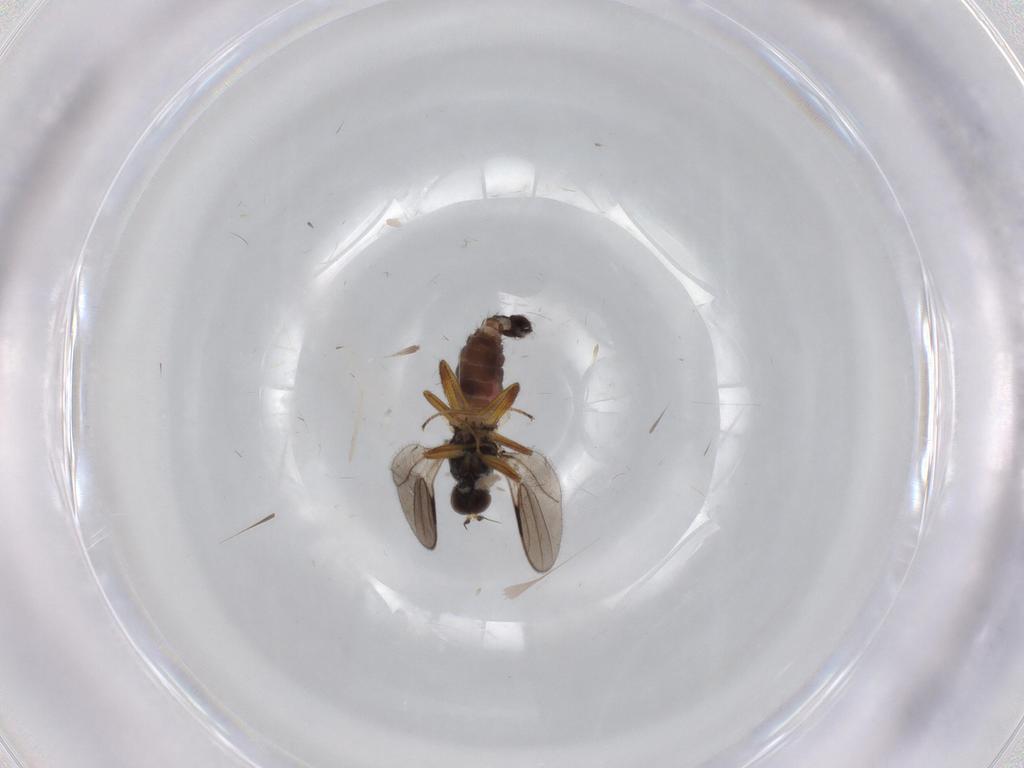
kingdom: Animalia
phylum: Arthropoda
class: Insecta
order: Diptera
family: Hybotidae
